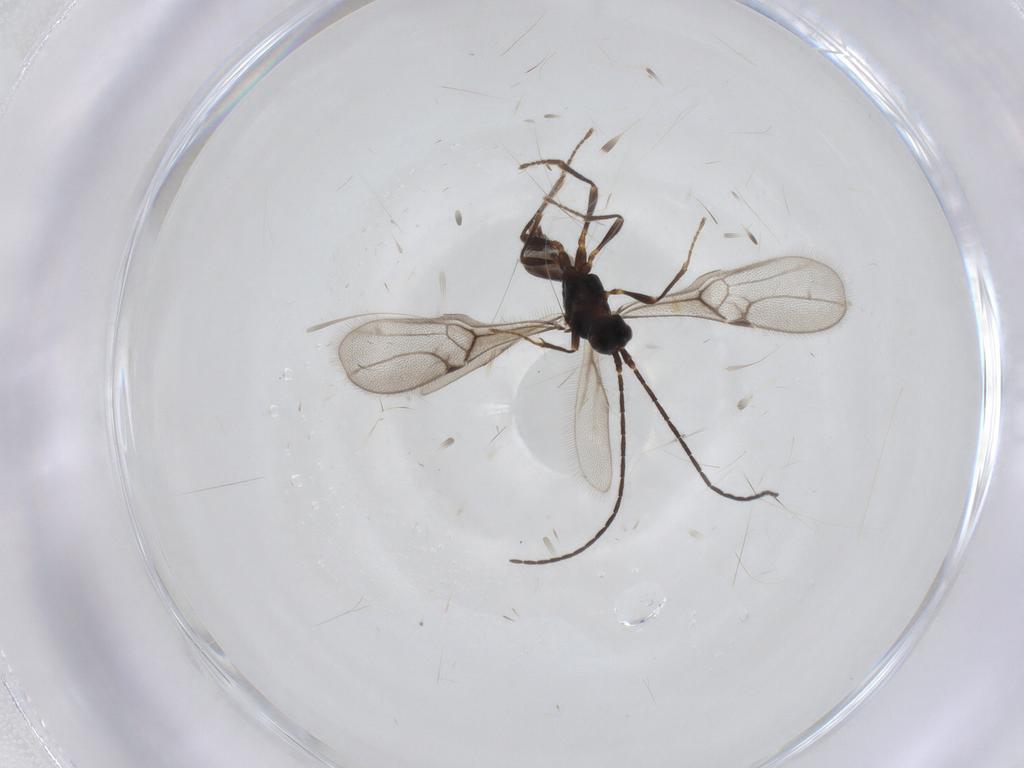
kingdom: Animalia
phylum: Arthropoda
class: Insecta
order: Hymenoptera
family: Braconidae
